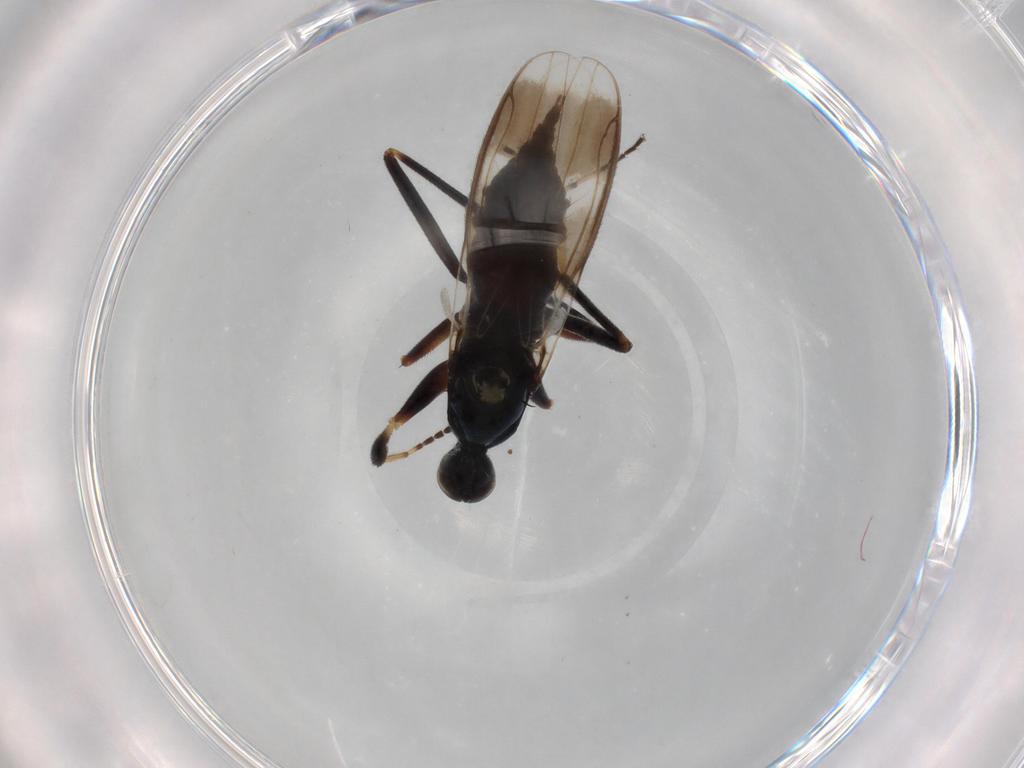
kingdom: Animalia
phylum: Arthropoda
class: Insecta
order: Diptera
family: Hybotidae
